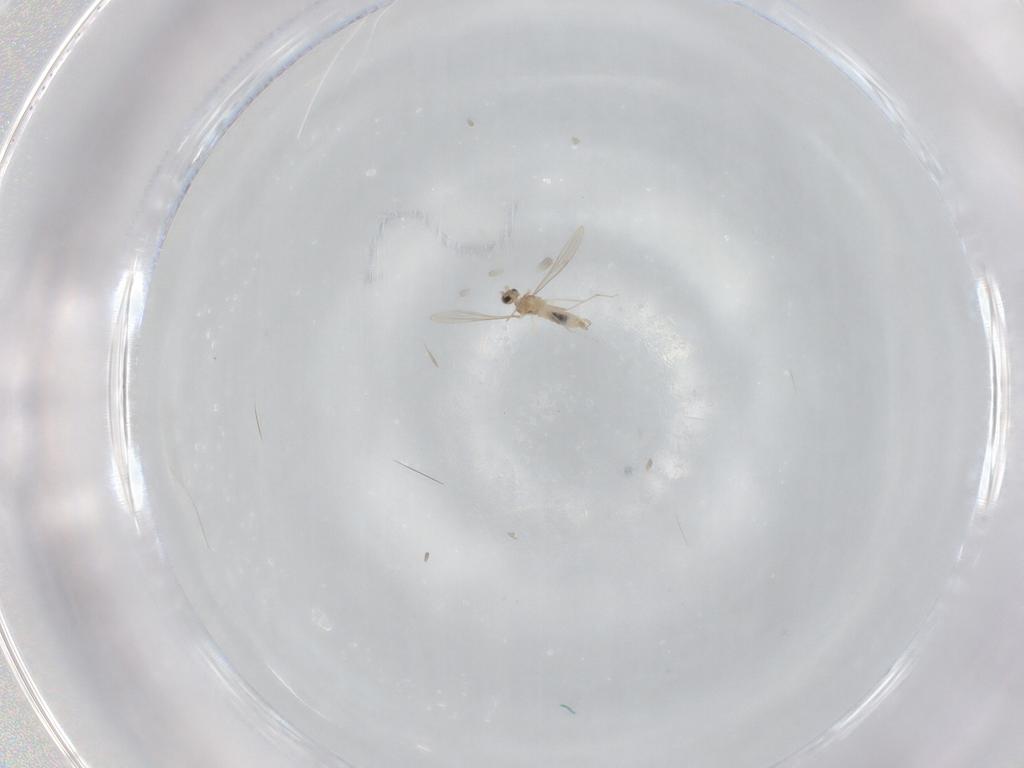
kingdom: Animalia
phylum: Arthropoda
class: Insecta
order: Diptera
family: Cecidomyiidae
